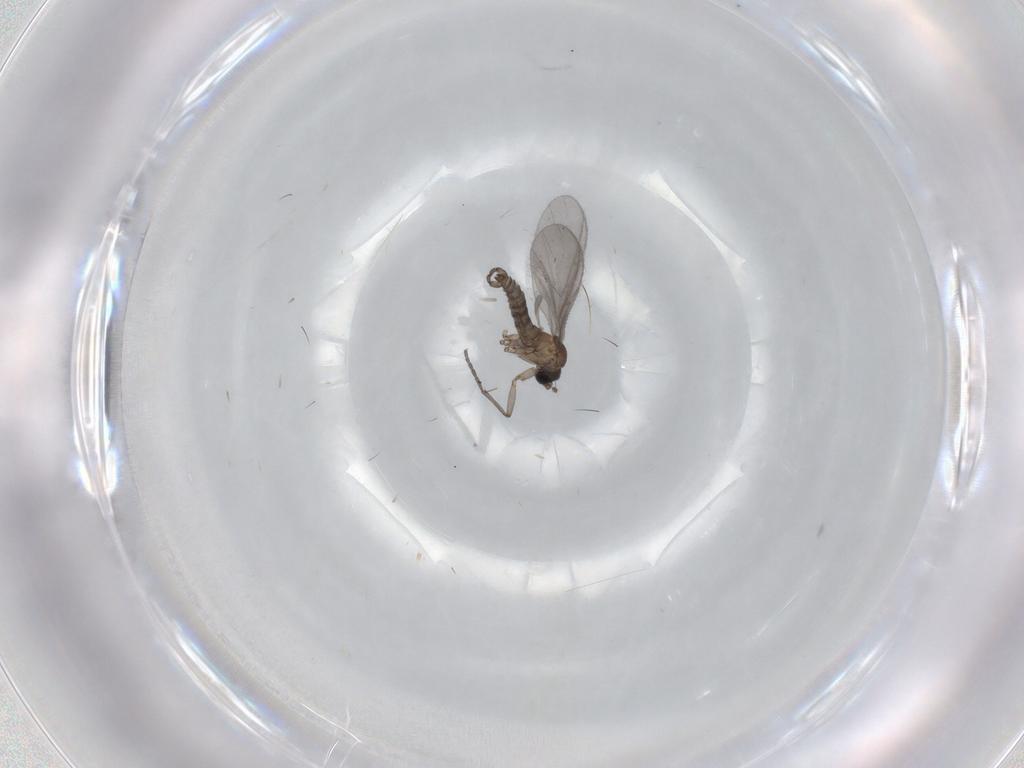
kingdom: Animalia
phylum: Arthropoda
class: Insecta
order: Diptera
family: Sciaridae
